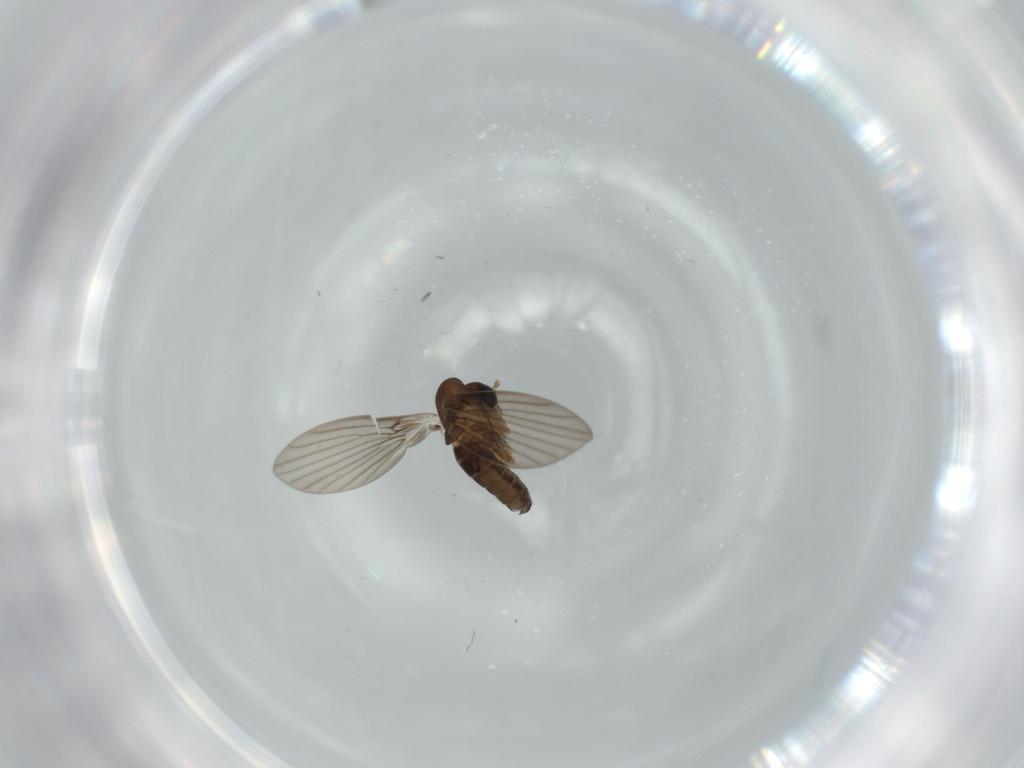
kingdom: Animalia
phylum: Arthropoda
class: Insecta
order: Diptera
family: Psychodidae
